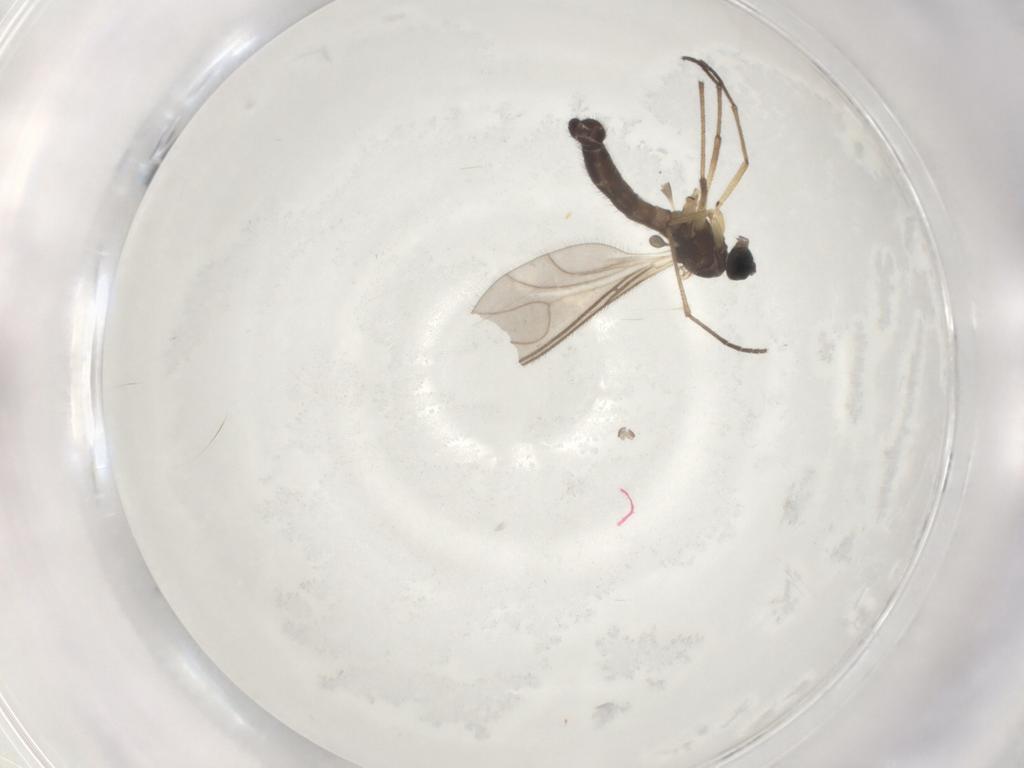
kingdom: Animalia
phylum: Arthropoda
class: Insecta
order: Diptera
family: Sciaridae
